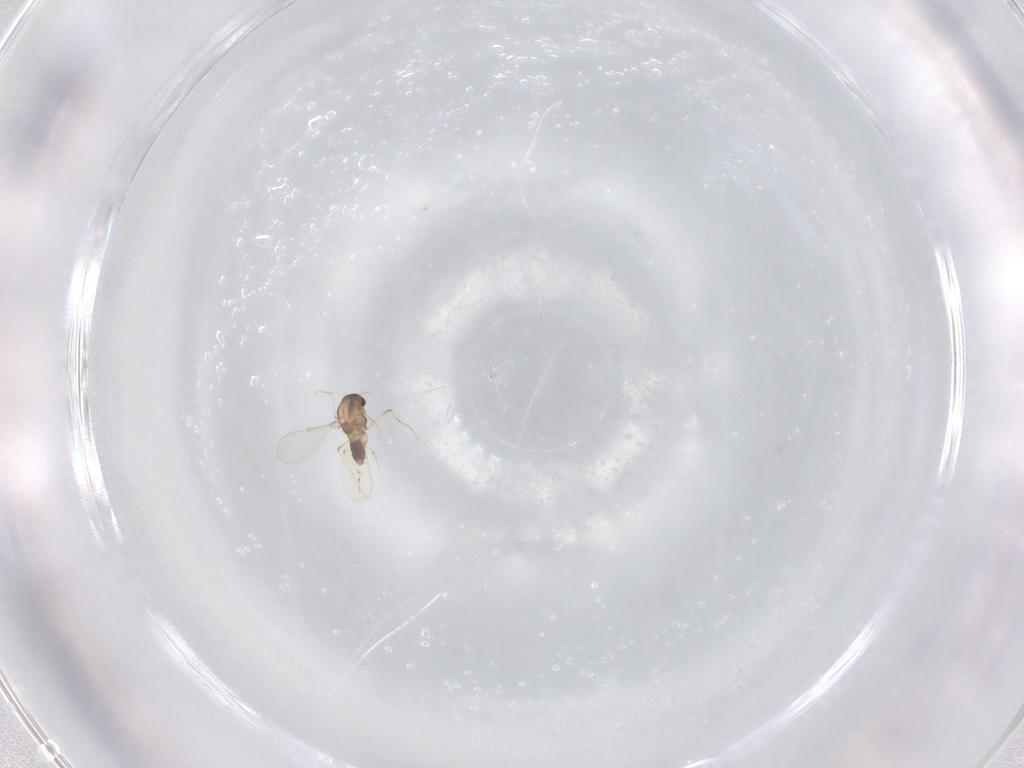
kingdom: Animalia
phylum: Arthropoda
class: Insecta
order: Diptera
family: Chironomidae
